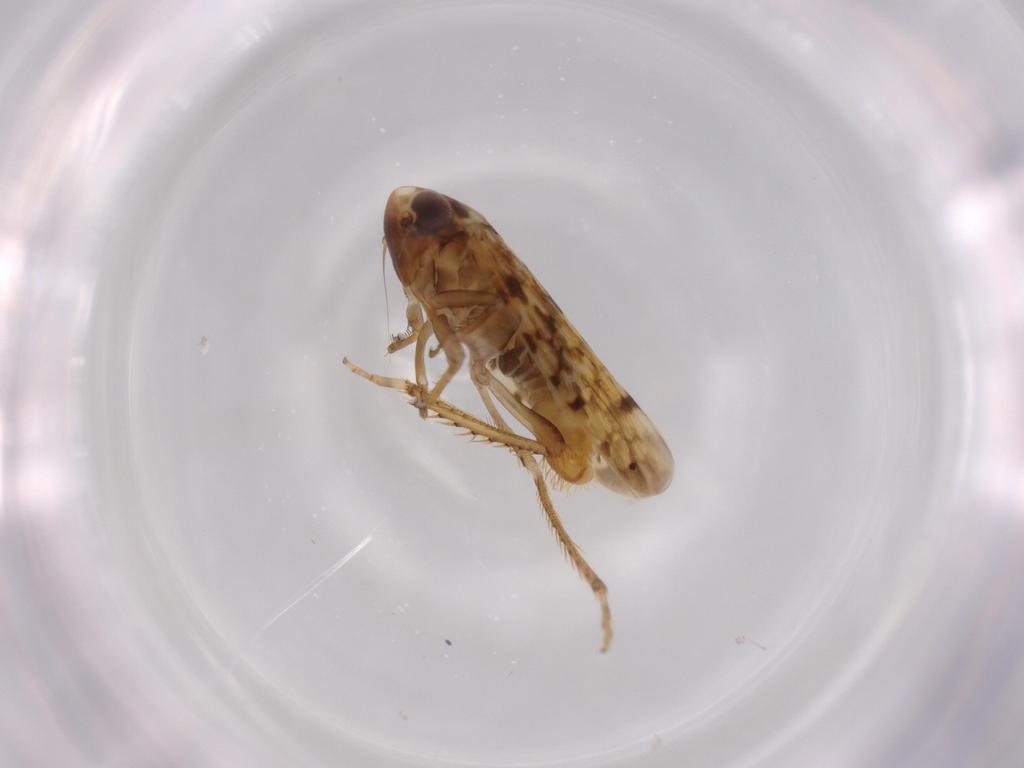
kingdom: Animalia
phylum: Arthropoda
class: Insecta
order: Hemiptera
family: Cicadellidae
